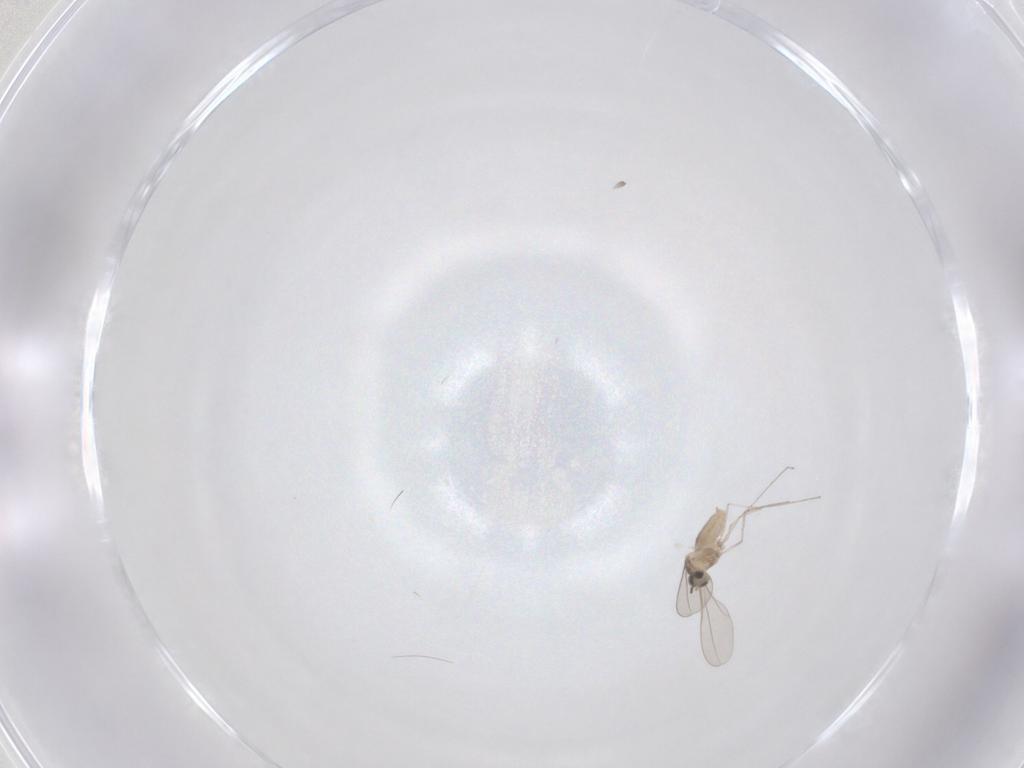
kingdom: Animalia
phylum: Arthropoda
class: Insecta
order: Diptera
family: Cecidomyiidae
